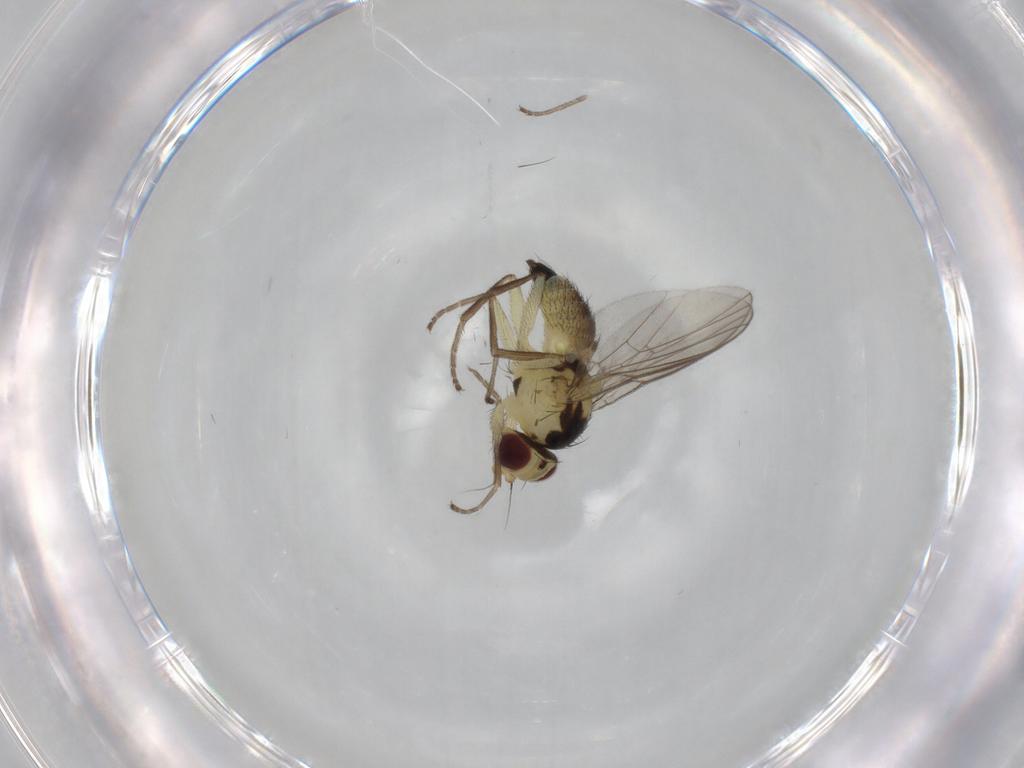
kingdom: Animalia
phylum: Arthropoda
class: Insecta
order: Diptera
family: Agromyzidae
